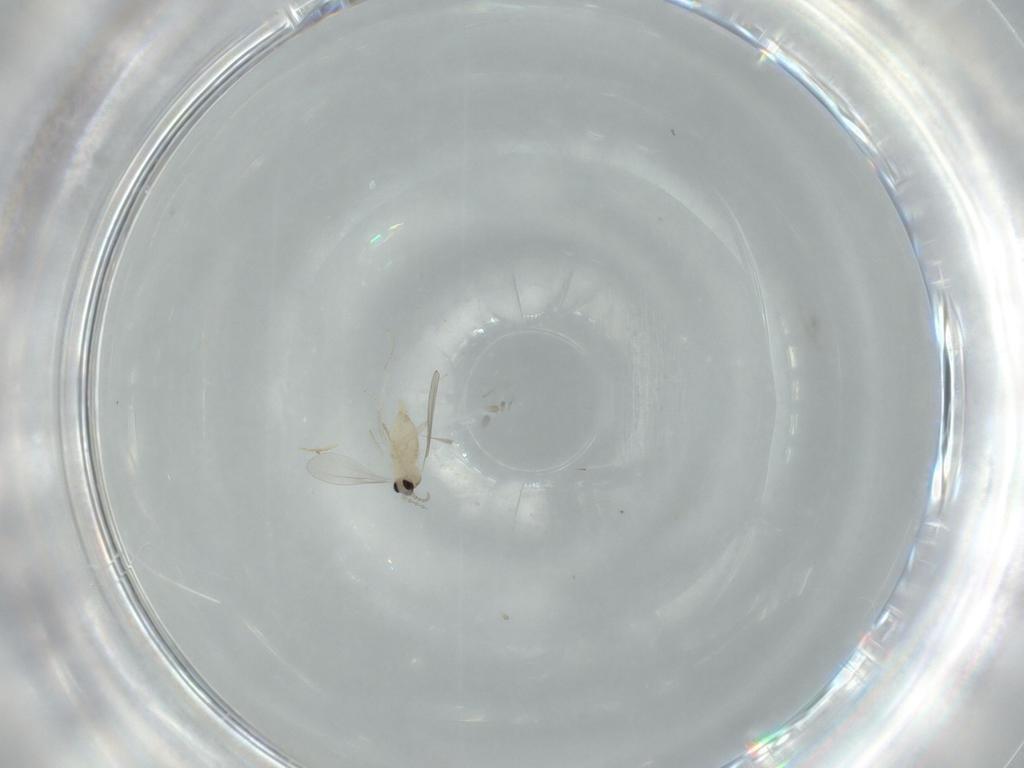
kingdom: Animalia
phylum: Arthropoda
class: Insecta
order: Diptera
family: Cecidomyiidae
